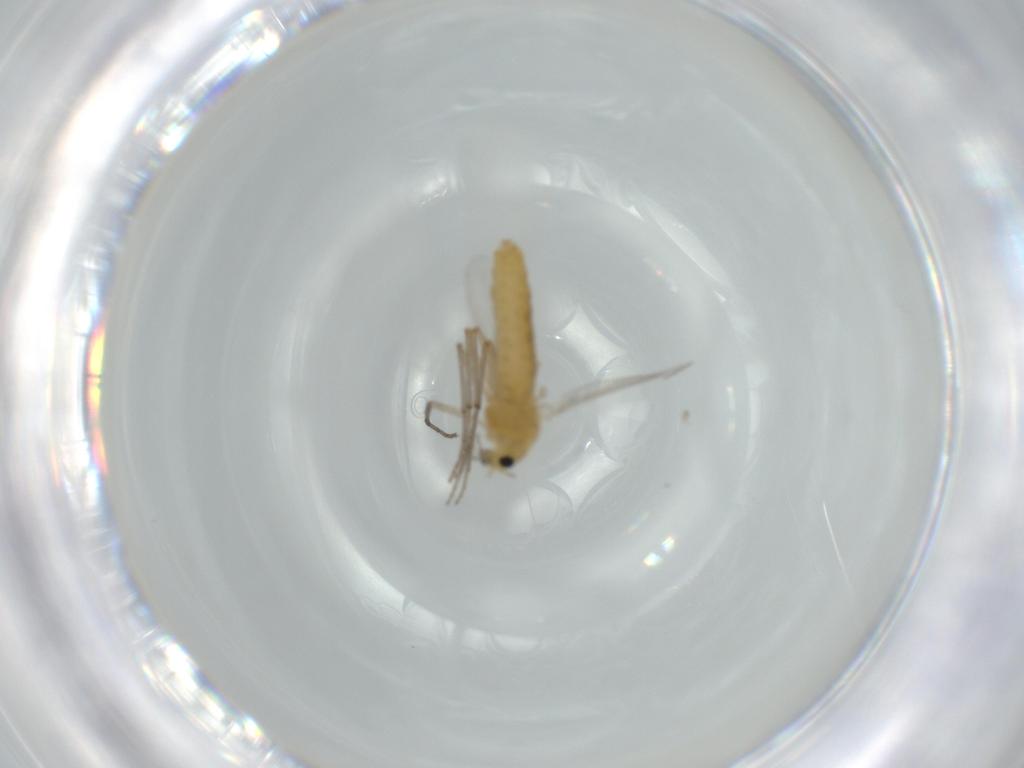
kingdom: Animalia
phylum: Arthropoda
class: Insecta
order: Diptera
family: Chironomidae
